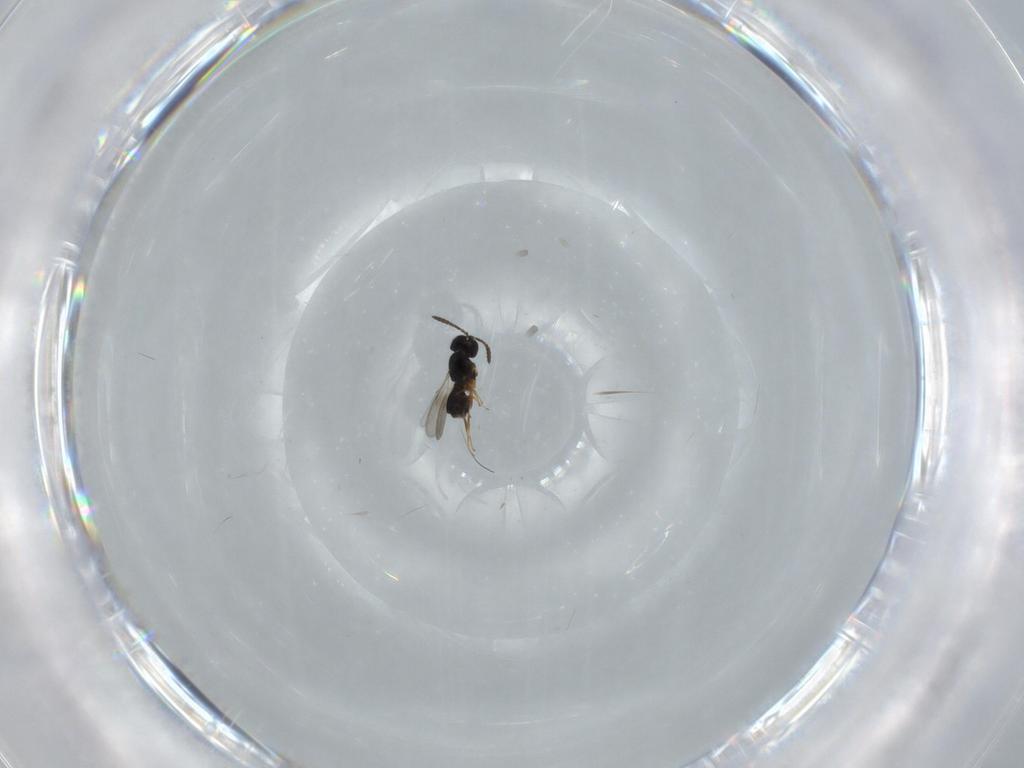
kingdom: Animalia
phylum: Arthropoda
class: Insecta
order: Hymenoptera
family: Scelionidae
